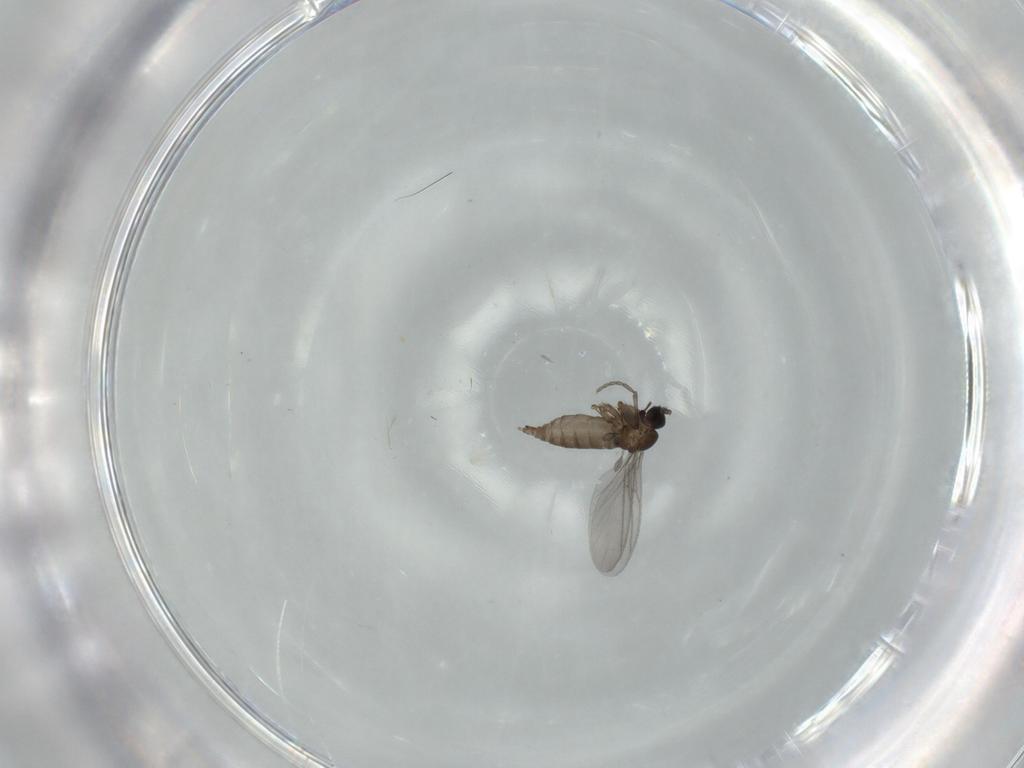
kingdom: Animalia
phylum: Arthropoda
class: Insecta
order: Diptera
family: Sciaridae
